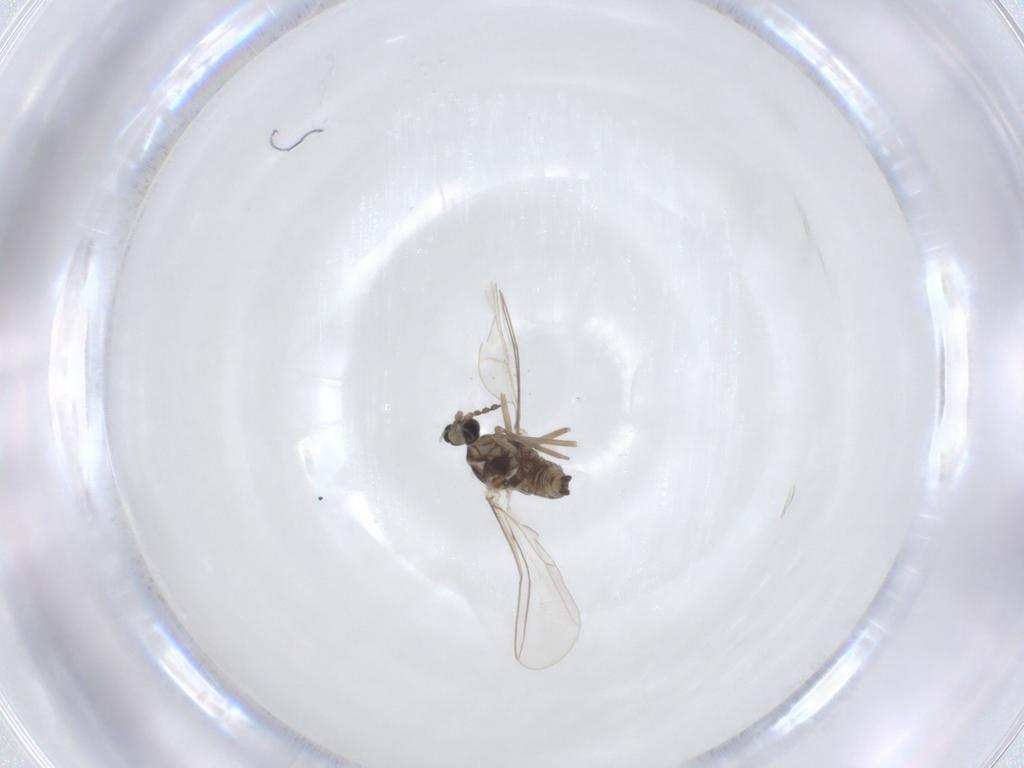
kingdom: Animalia
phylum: Arthropoda
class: Insecta
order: Diptera
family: Cecidomyiidae
